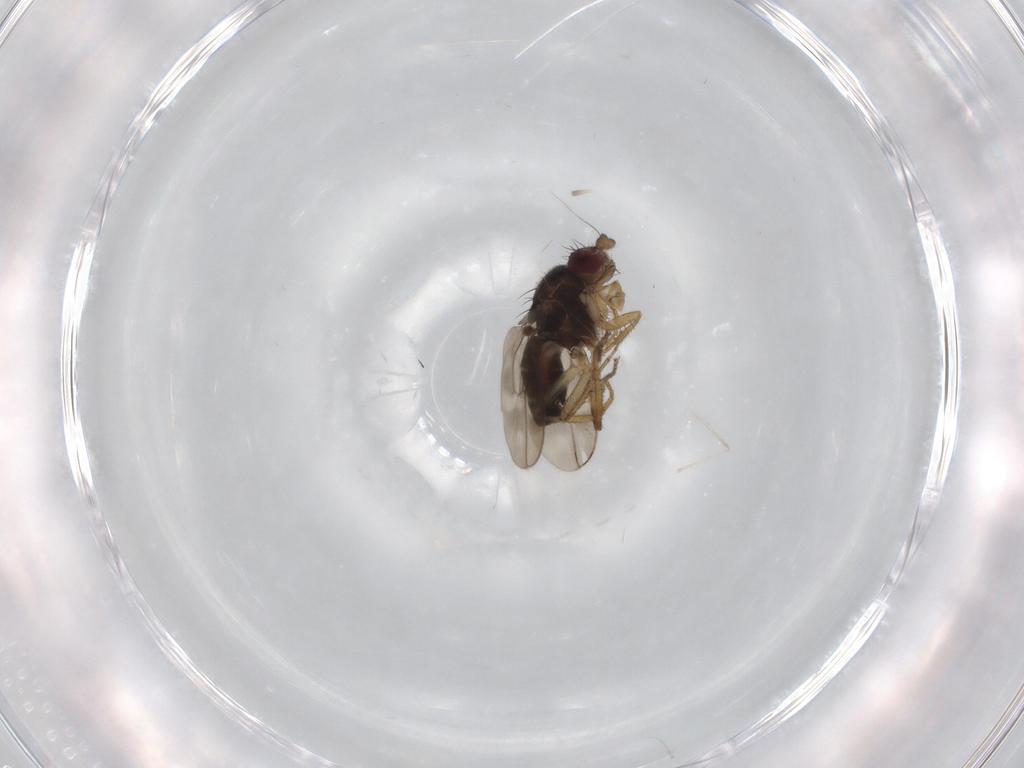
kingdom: Animalia
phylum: Arthropoda
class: Insecta
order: Diptera
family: Sphaeroceridae
